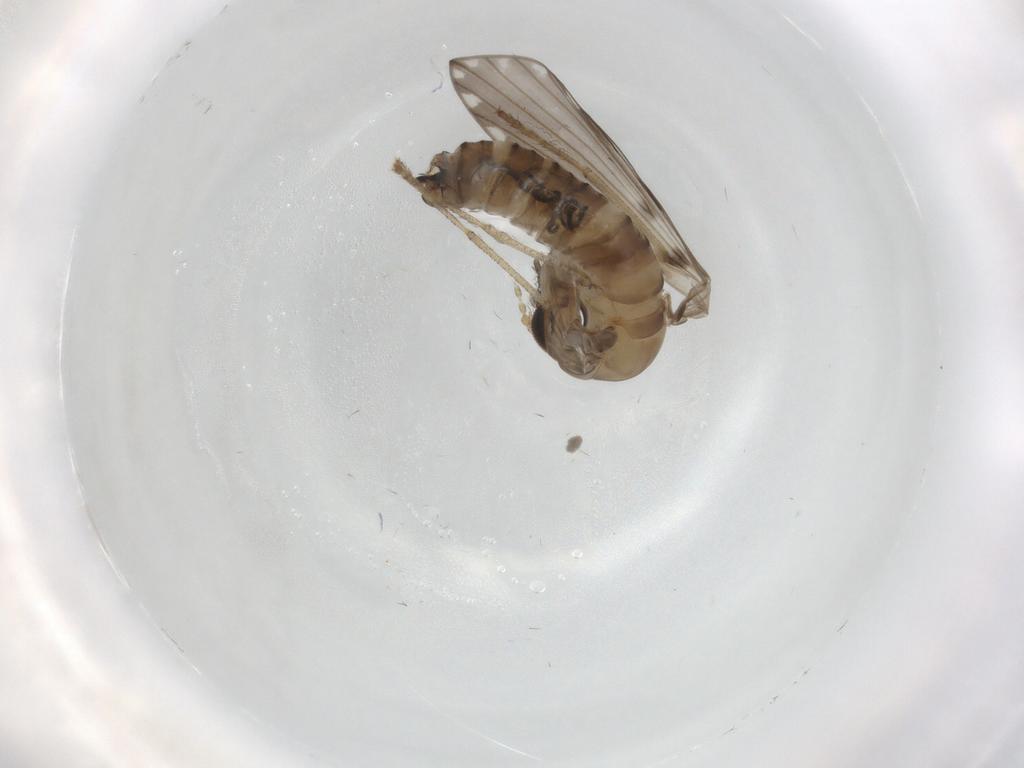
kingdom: Animalia
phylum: Arthropoda
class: Insecta
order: Diptera
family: Psychodidae
